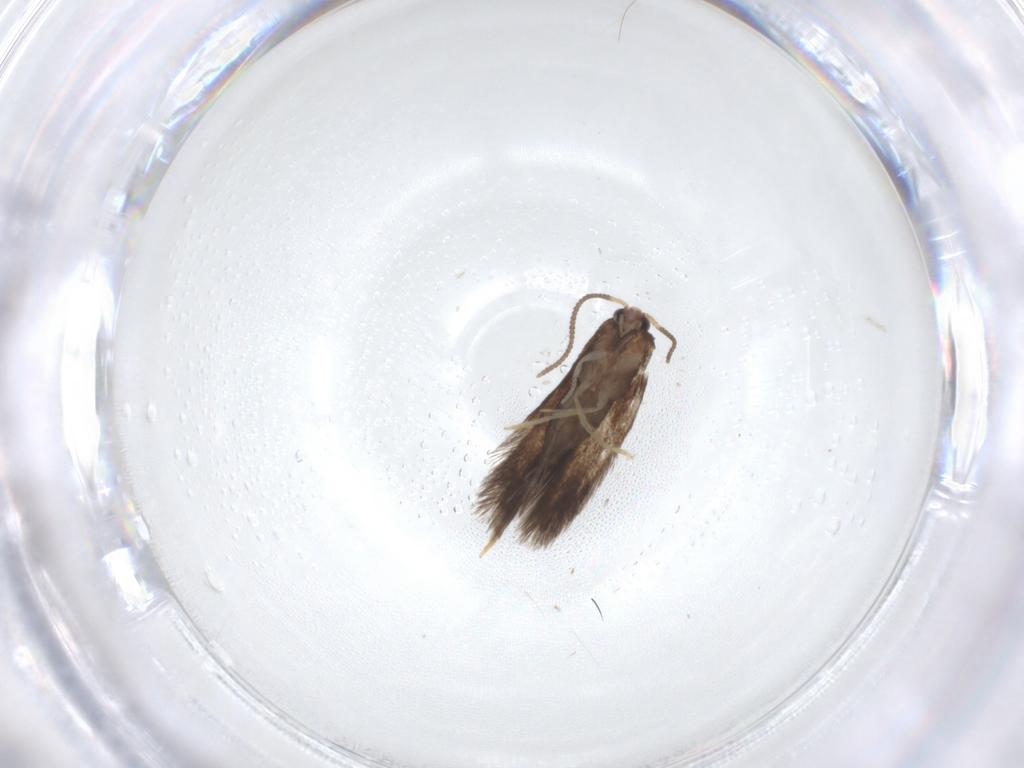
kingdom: Animalia
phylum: Arthropoda
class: Insecta
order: Lepidoptera
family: Nepticulidae
